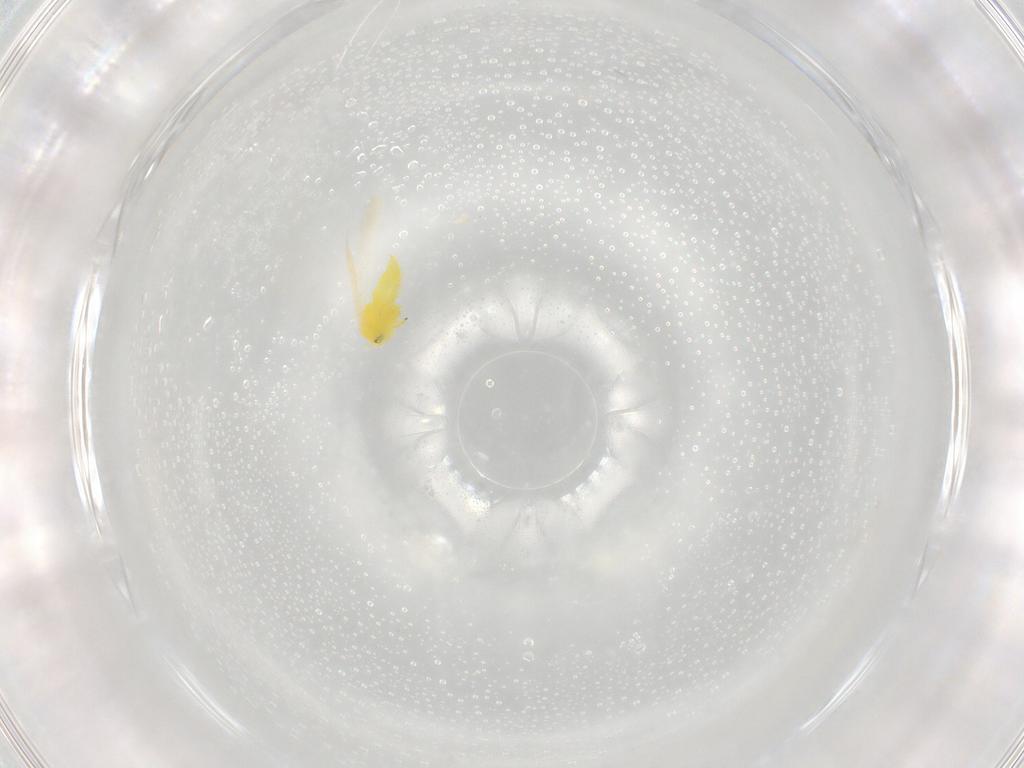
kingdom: Animalia
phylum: Arthropoda
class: Insecta
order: Hemiptera
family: Aleyrodidae
